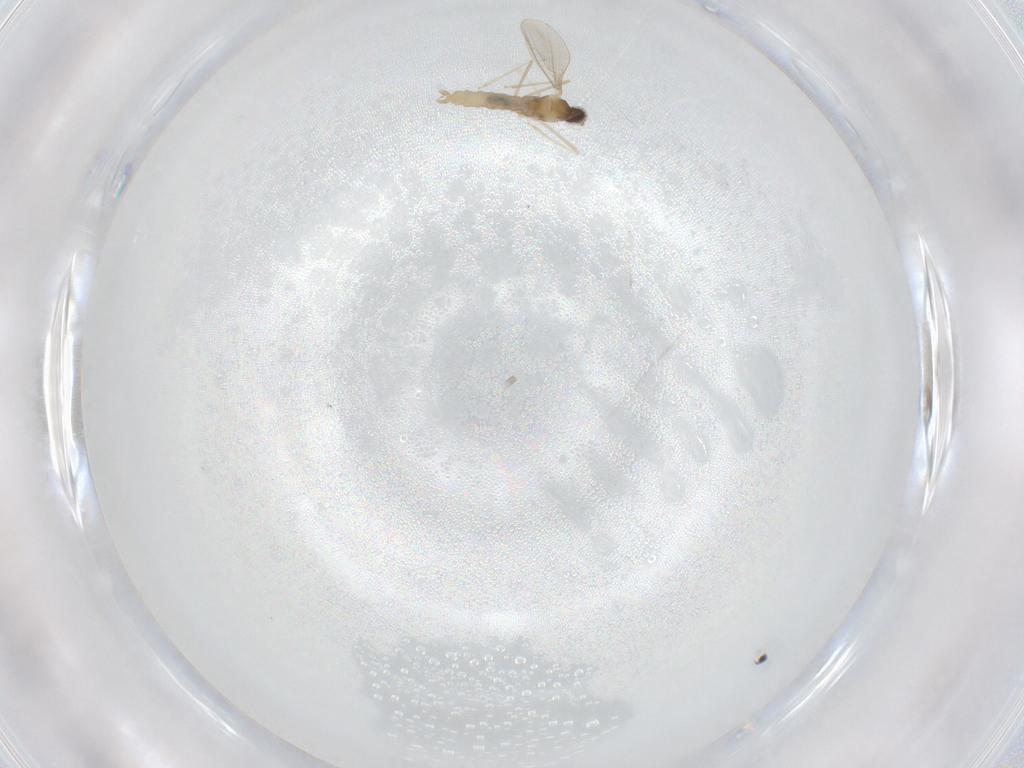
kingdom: Animalia
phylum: Arthropoda
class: Insecta
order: Diptera
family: Cecidomyiidae
